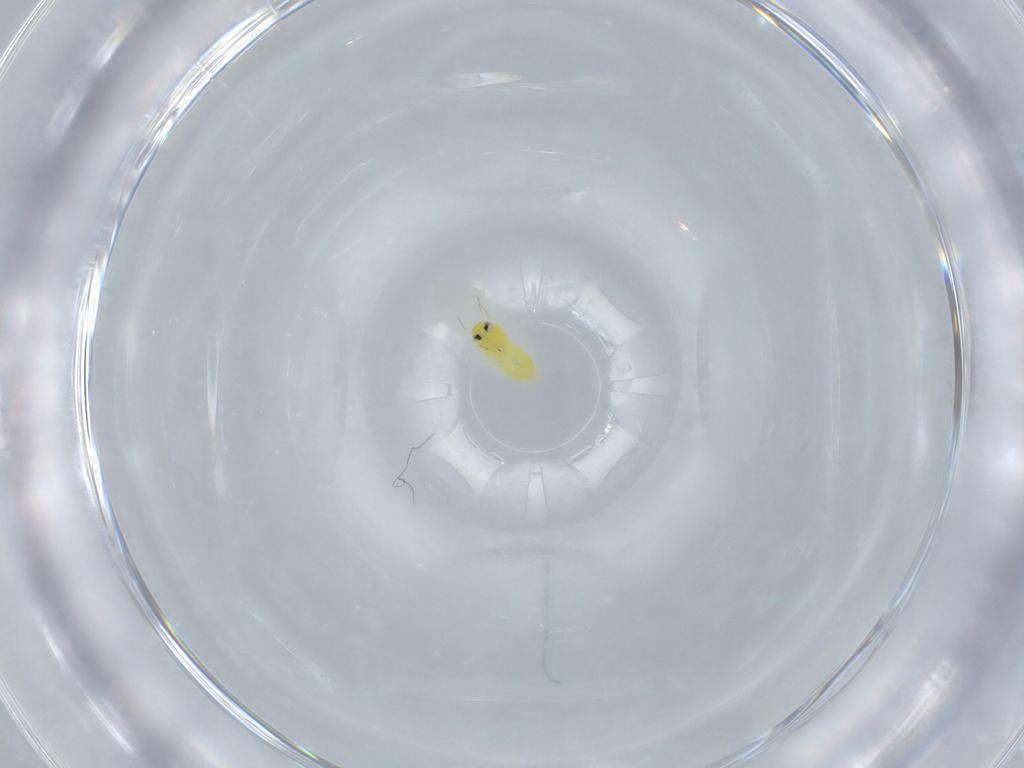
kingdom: Animalia
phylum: Arthropoda
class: Insecta
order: Hemiptera
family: Aleyrodidae
